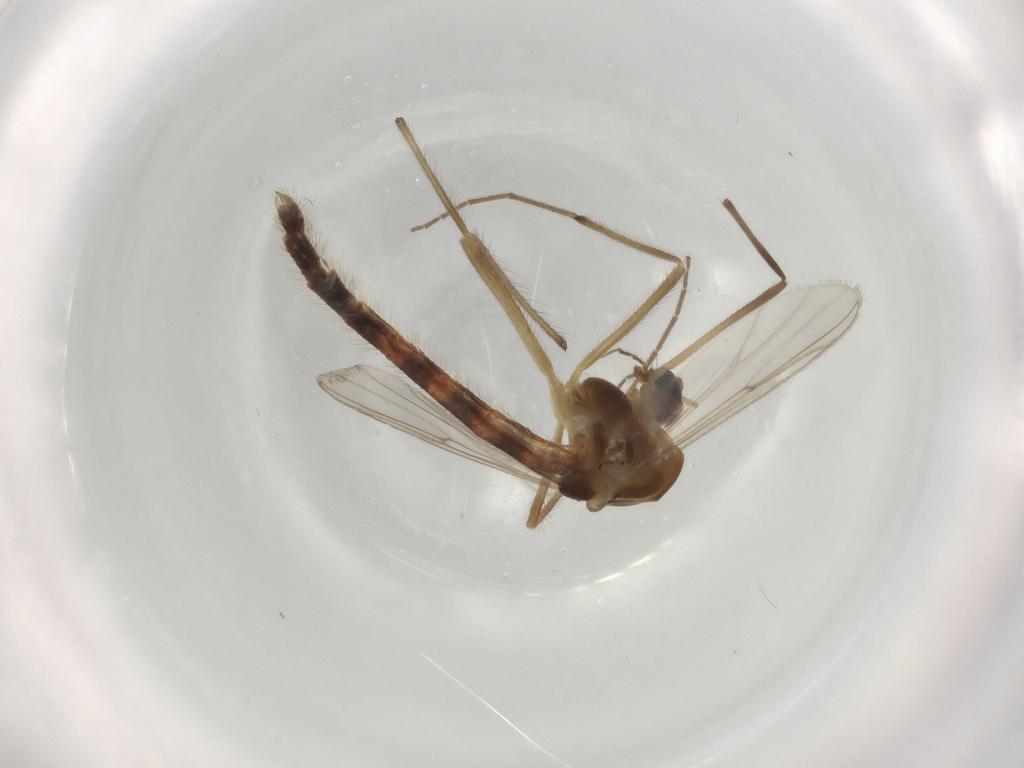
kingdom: Animalia
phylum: Arthropoda
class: Insecta
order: Diptera
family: Chironomidae
